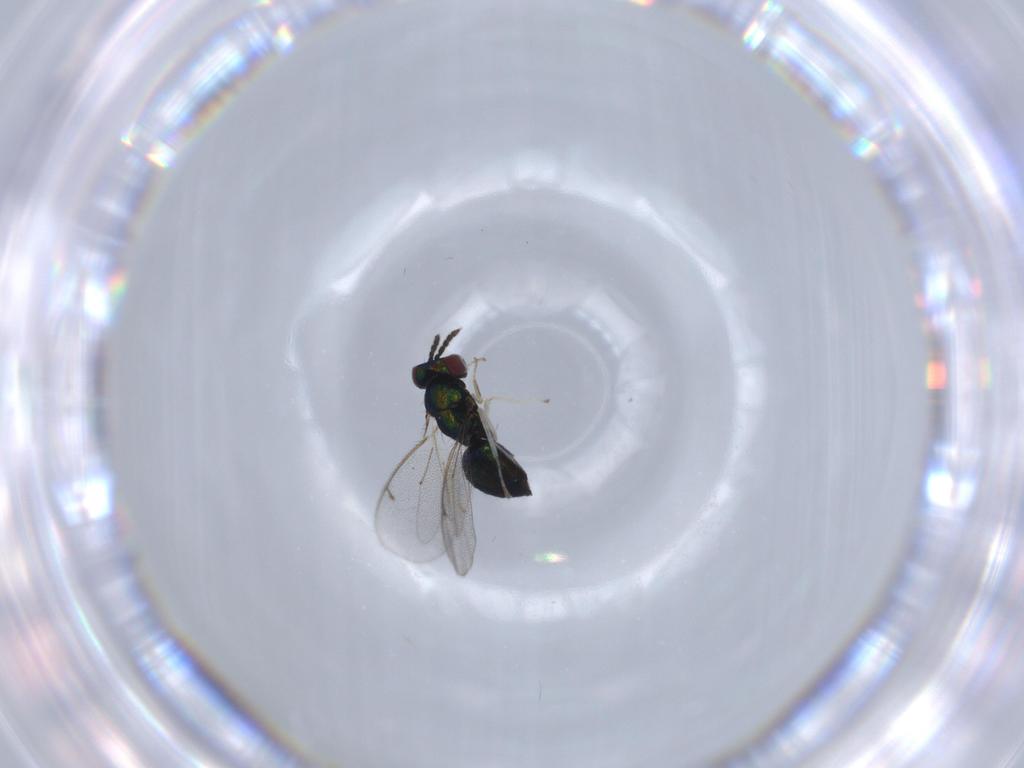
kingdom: Animalia
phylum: Arthropoda
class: Insecta
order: Hymenoptera
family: Eulophidae
